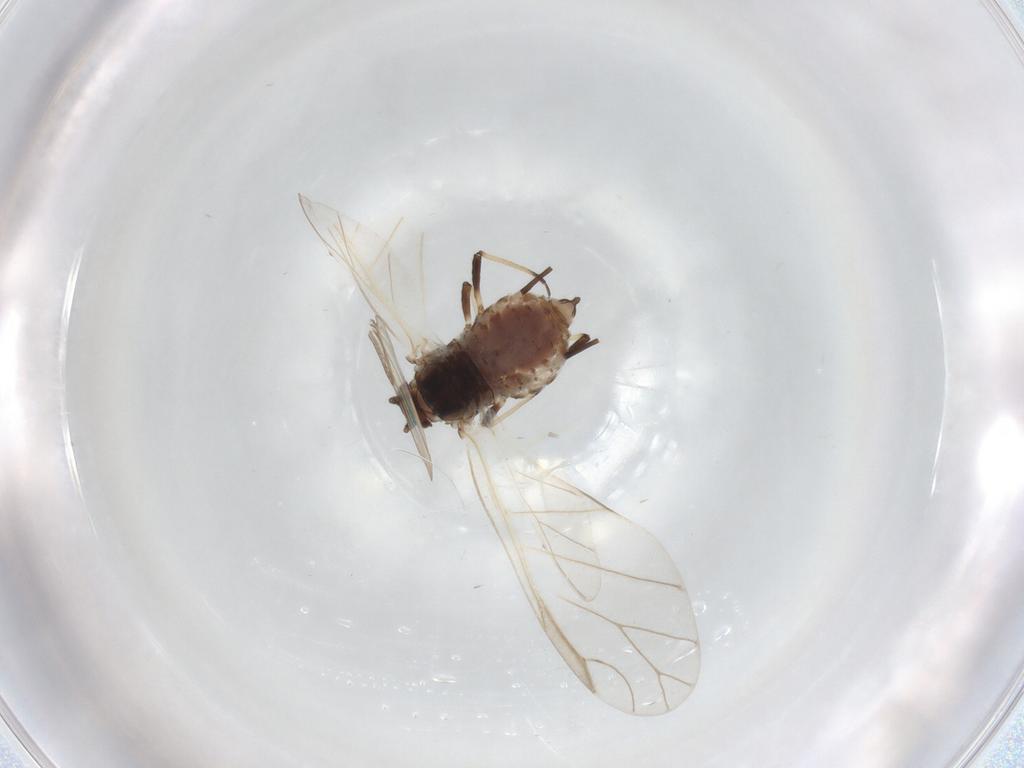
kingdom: Animalia
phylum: Arthropoda
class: Insecta
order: Hemiptera
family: Aphididae
